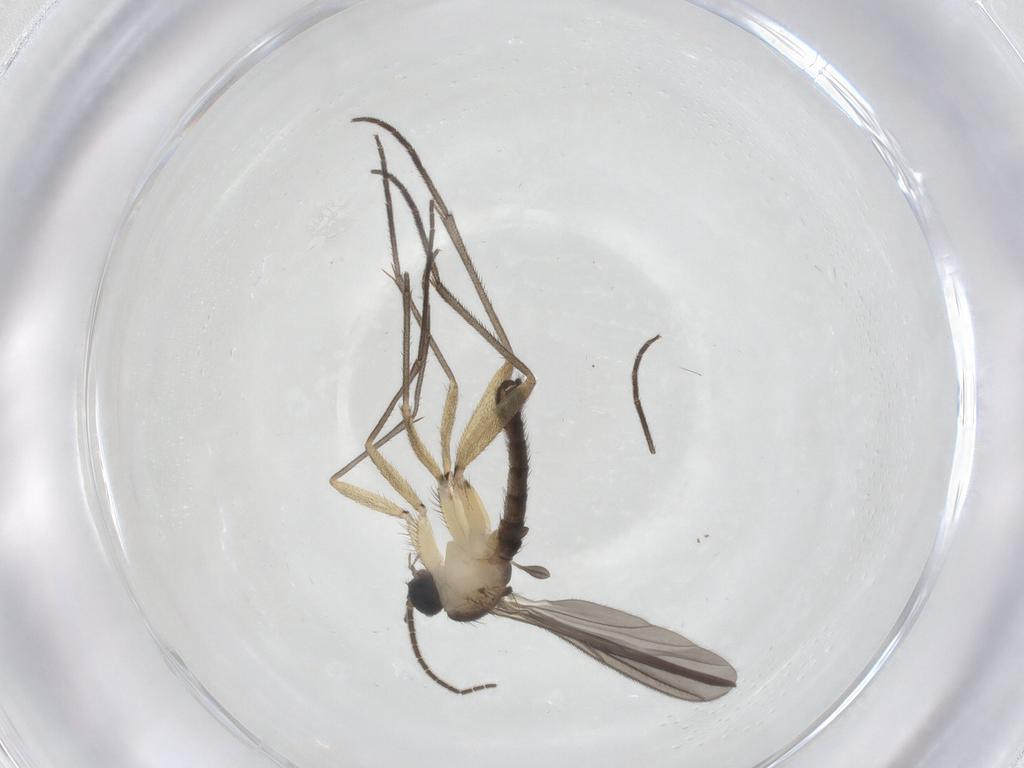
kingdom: Animalia
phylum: Arthropoda
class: Insecta
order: Diptera
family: Sciaridae
